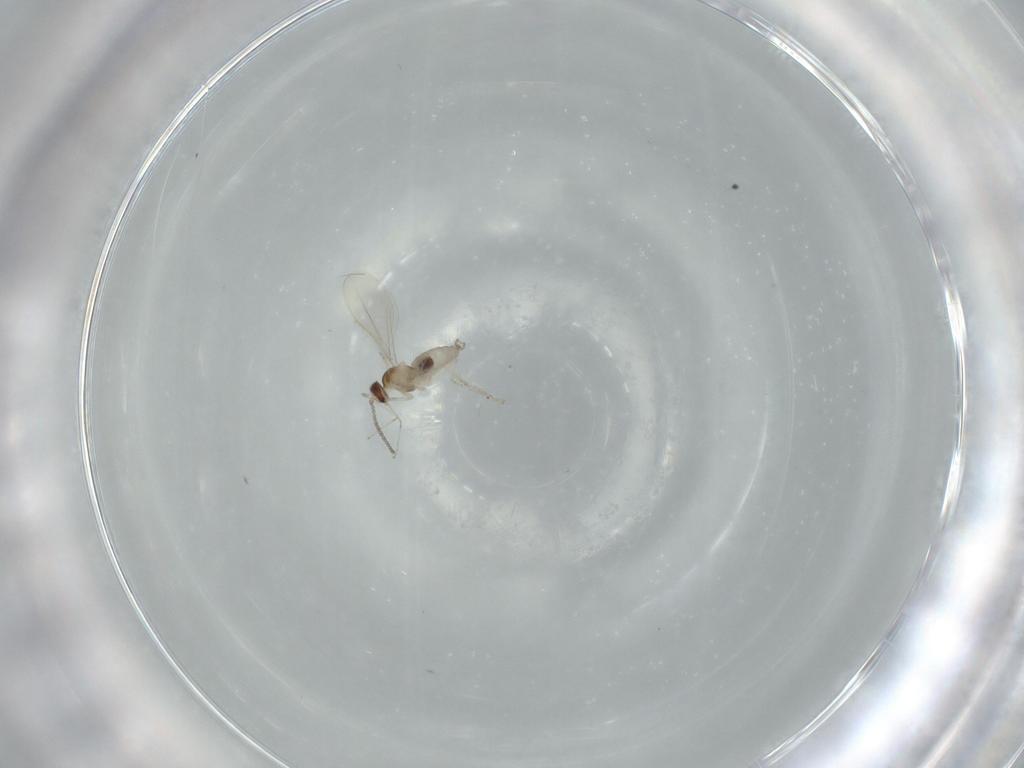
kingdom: Animalia
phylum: Arthropoda
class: Insecta
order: Diptera
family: Cecidomyiidae
